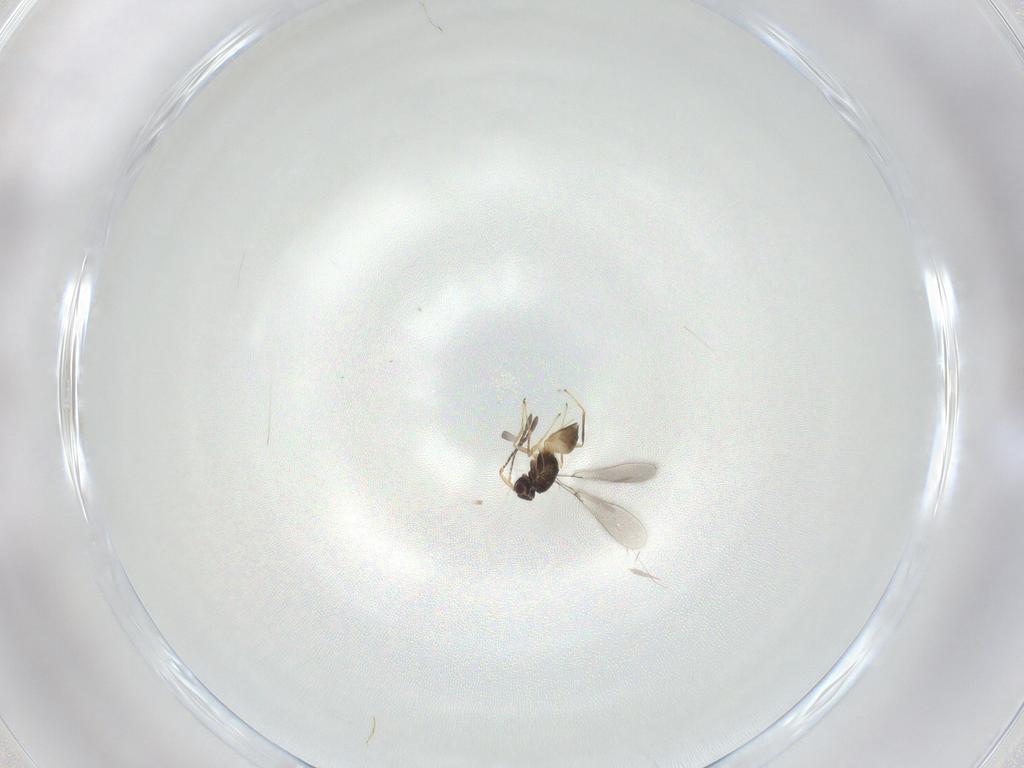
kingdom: Animalia
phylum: Arthropoda
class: Insecta
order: Hymenoptera
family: Mymaridae
